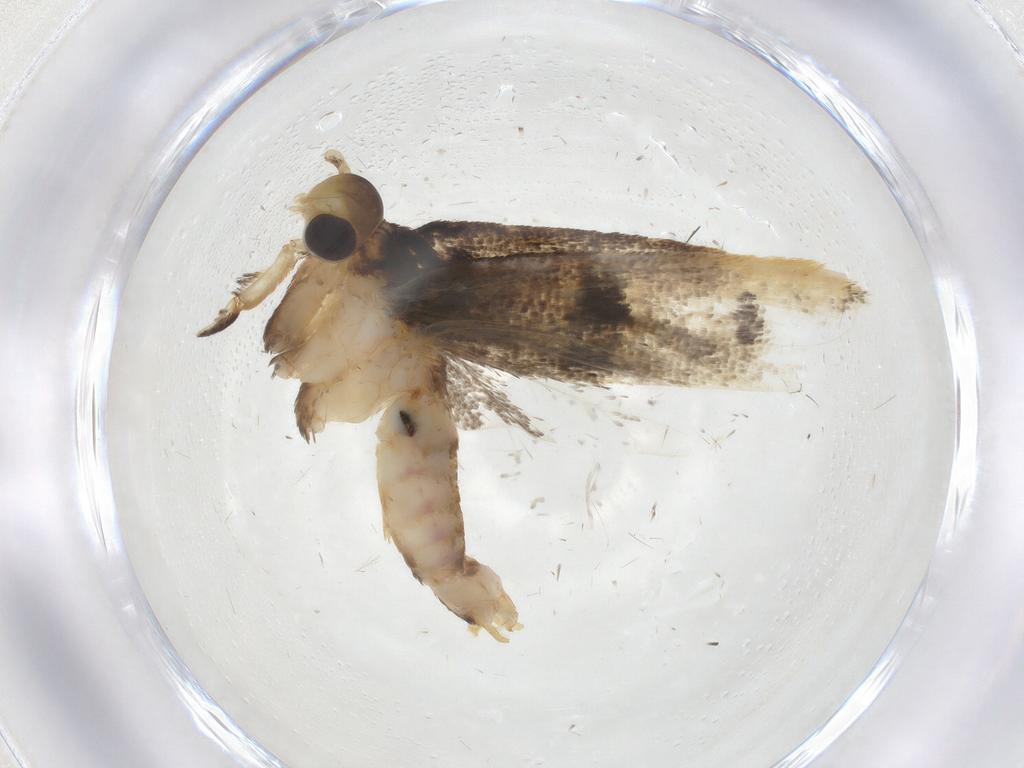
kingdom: Animalia
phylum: Arthropoda
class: Insecta
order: Lepidoptera
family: Lecithoceridae
